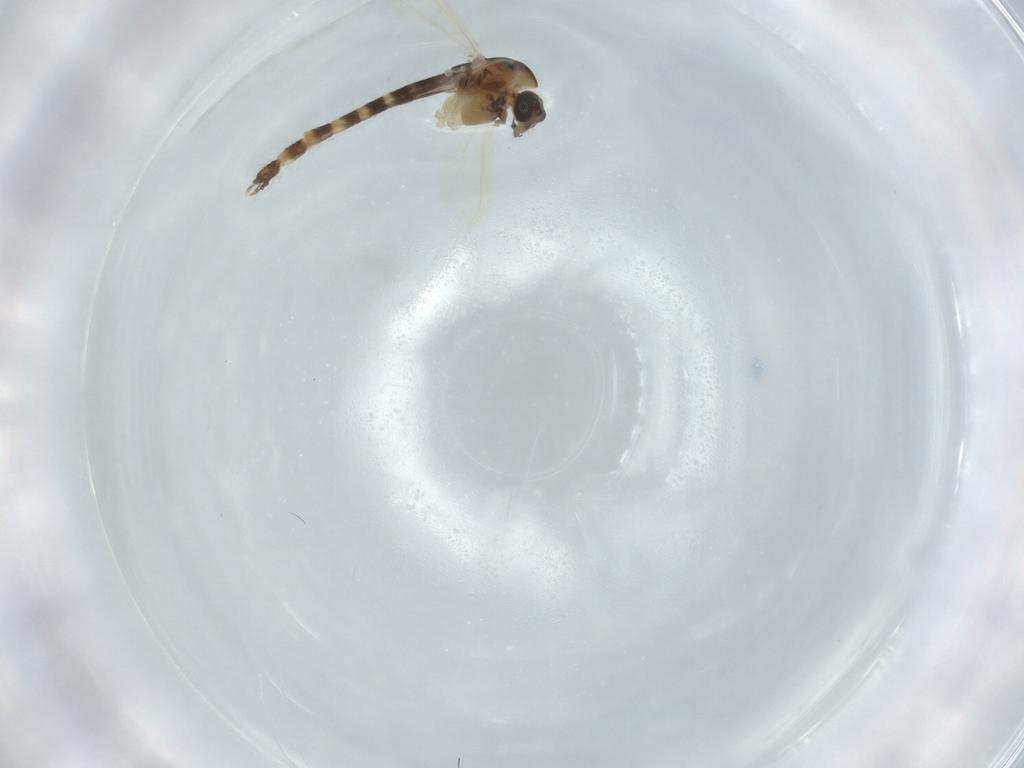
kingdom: Animalia
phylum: Arthropoda
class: Insecta
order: Diptera
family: Chironomidae
